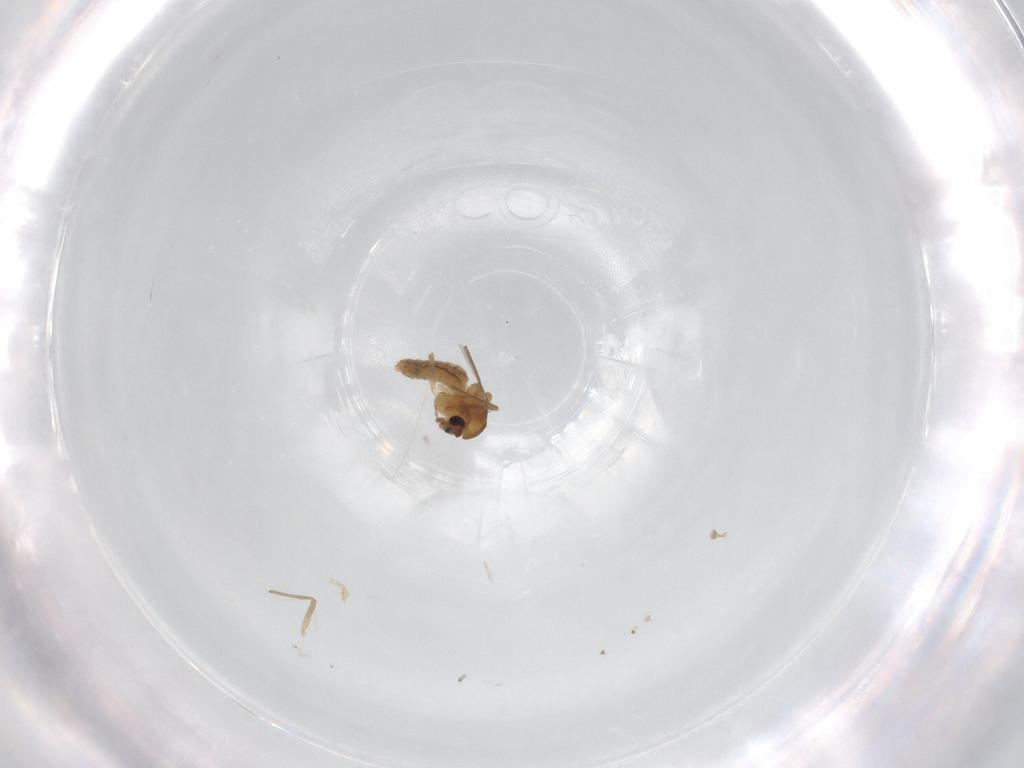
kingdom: Animalia
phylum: Arthropoda
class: Insecta
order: Diptera
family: Chironomidae
